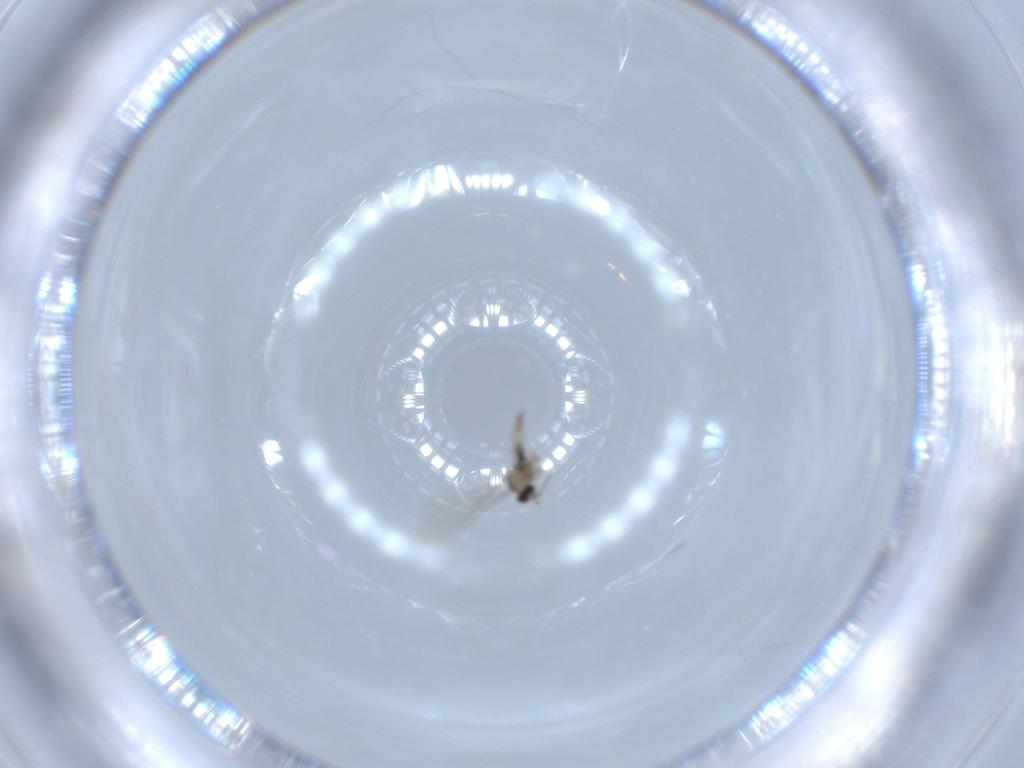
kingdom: Animalia
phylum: Arthropoda
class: Insecta
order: Diptera
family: Cecidomyiidae
